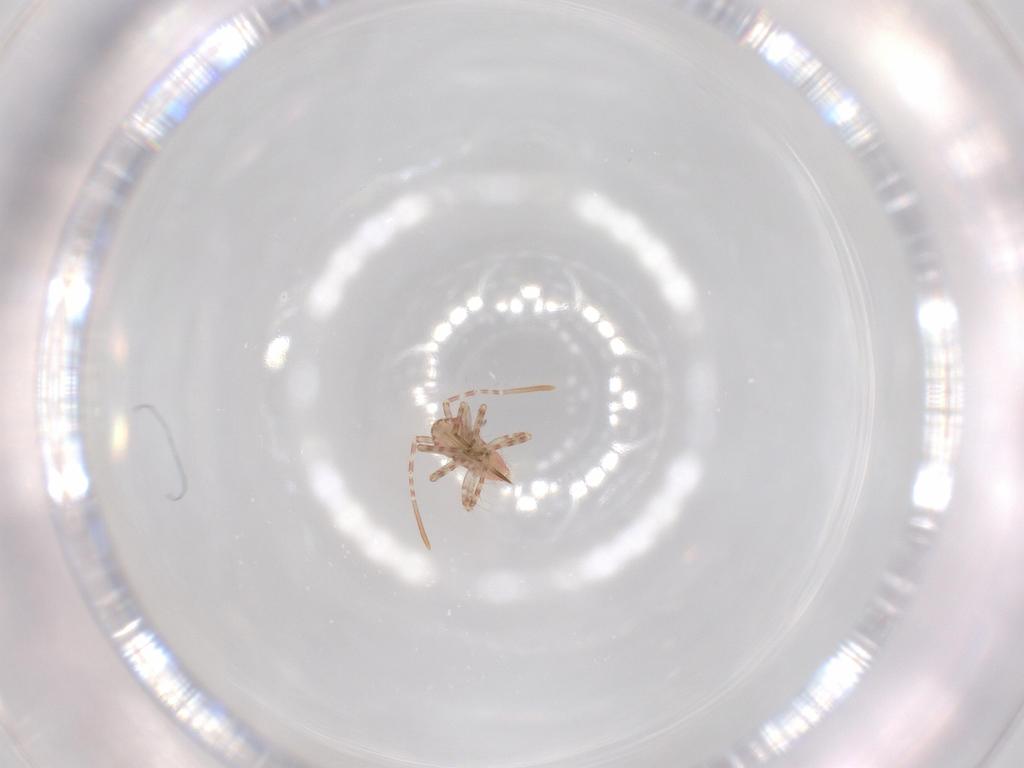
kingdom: Animalia
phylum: Arthropoda
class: Insecta
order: Hemiptera
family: Miridae
